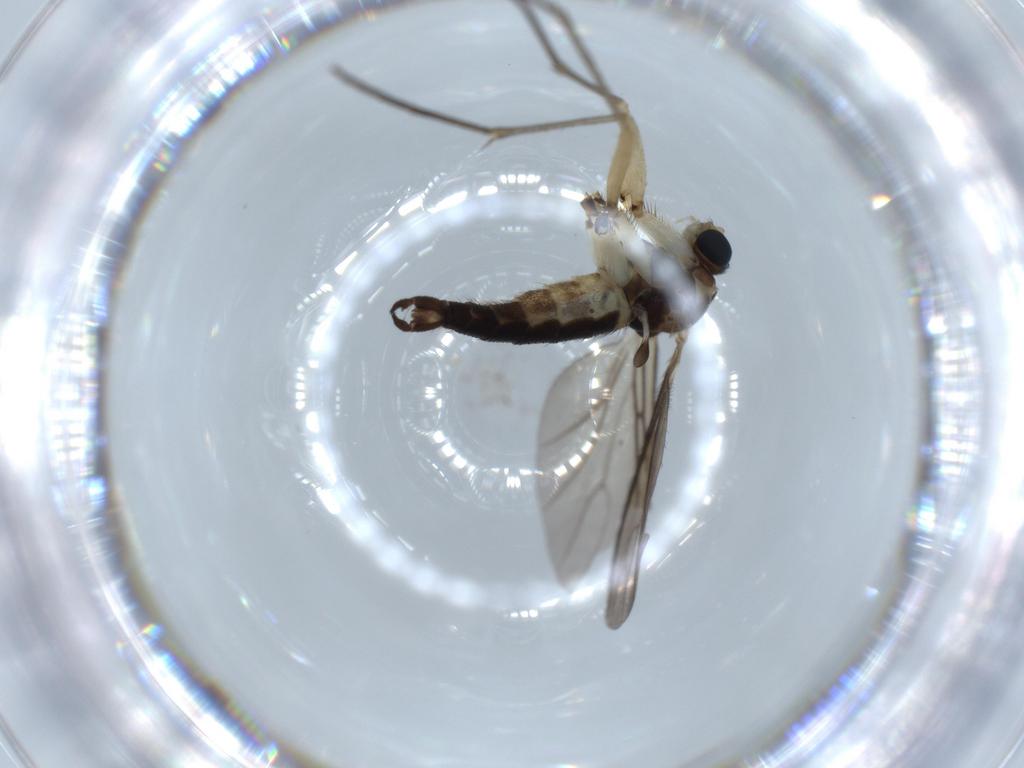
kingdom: Animalia
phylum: Arthropoda
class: Insecta
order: Diptera
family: Sciaridae
